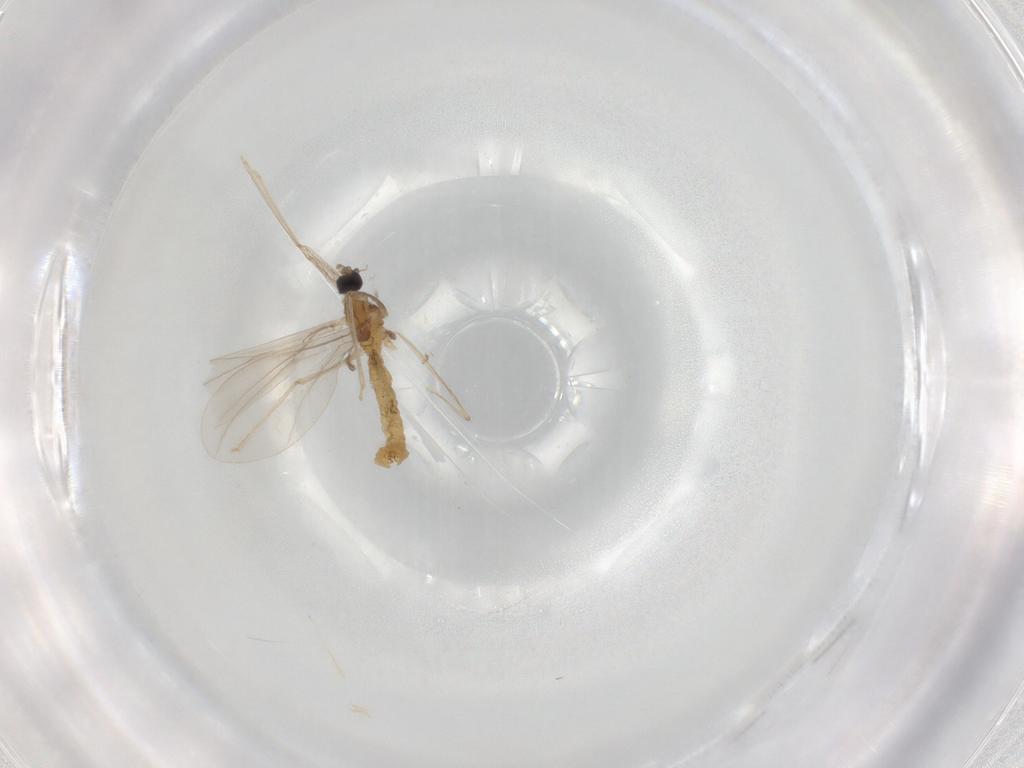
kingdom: Animalia
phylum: Arthropoda
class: Insecta
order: Diptera
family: Cecidomyiidae
